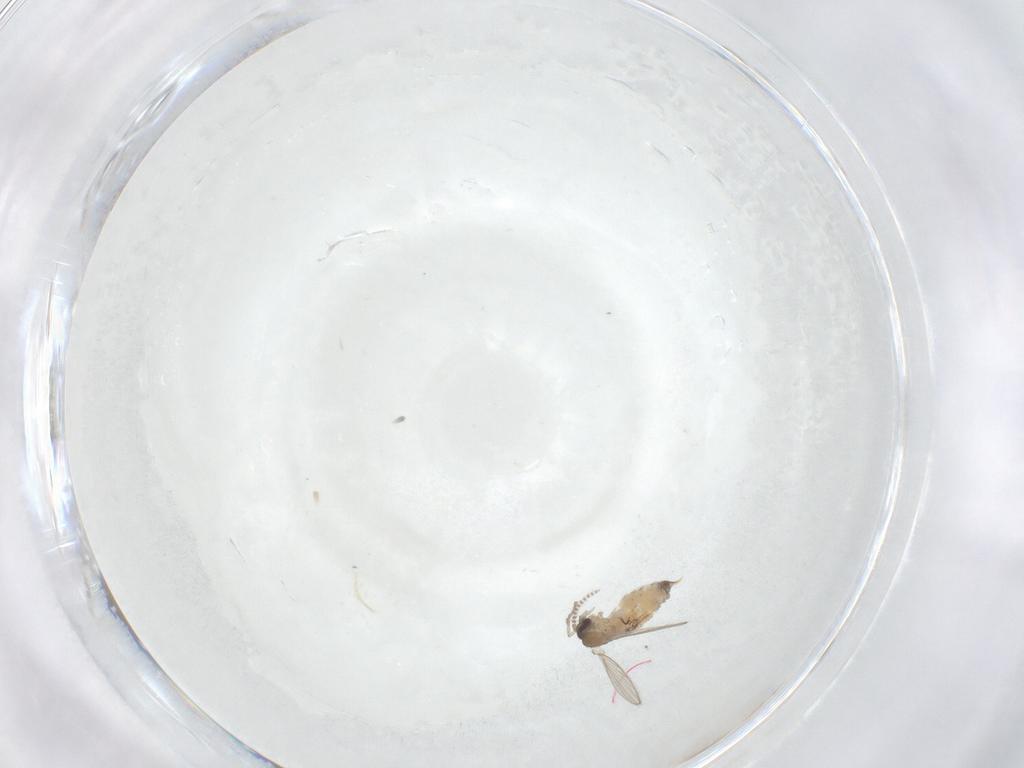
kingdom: Animalia
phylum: Arthropoda
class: Insecta
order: Diptera
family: Psychodidae
